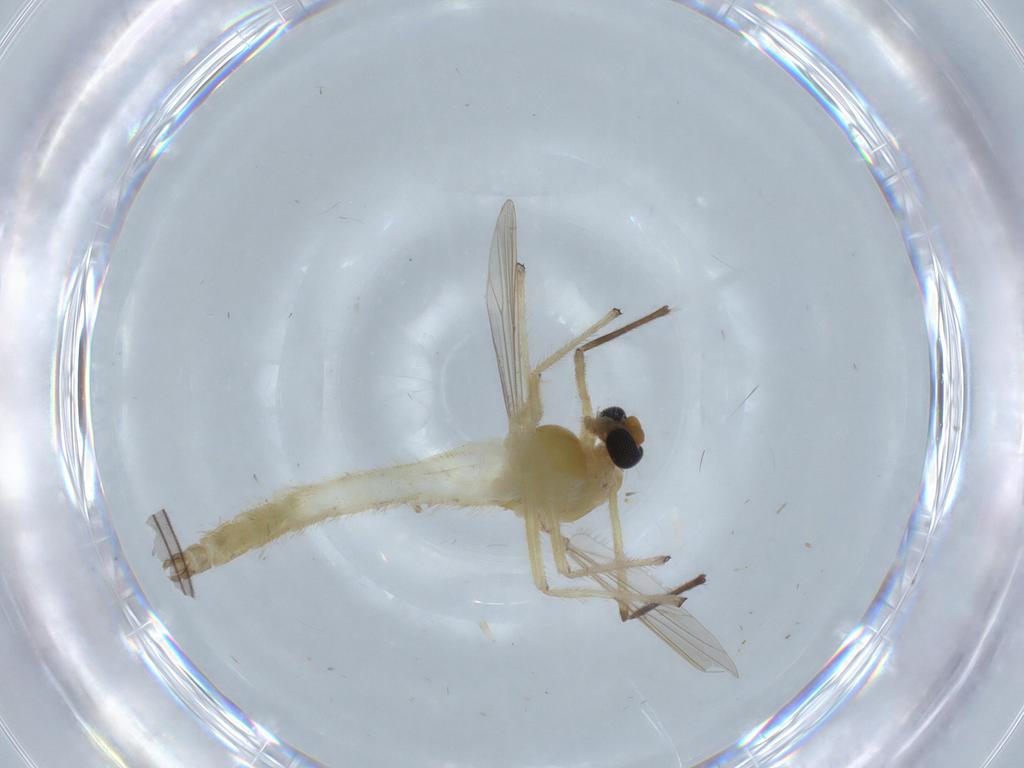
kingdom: Animalia
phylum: Arthropoda
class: Insecta
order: Diptera
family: Chironomidae
